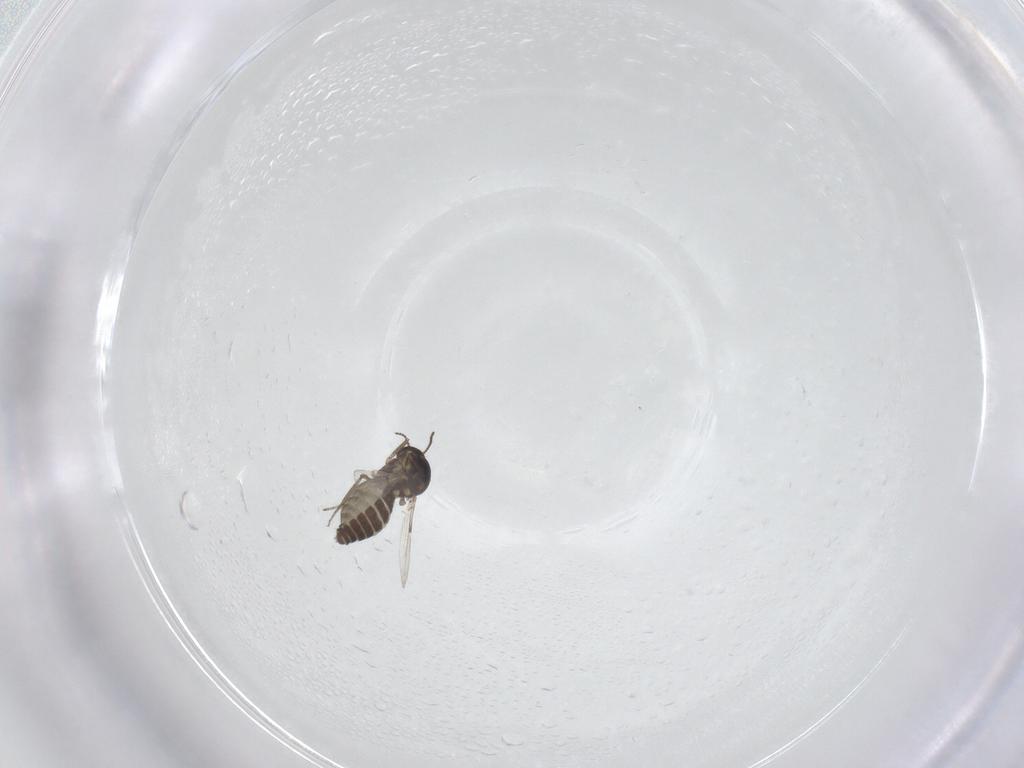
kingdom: Animalia
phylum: Arthropoda
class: Insecta
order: Diptera
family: Ceratopogonidae
